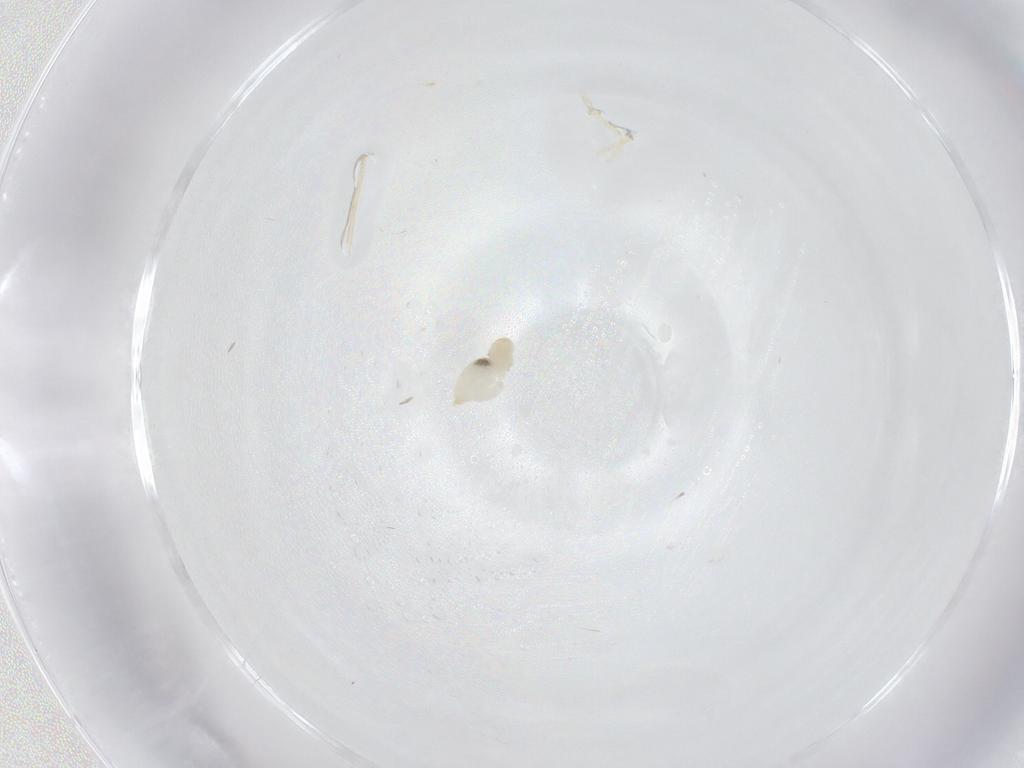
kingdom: Animalia
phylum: Arthropoda
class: Insecta
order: Diptera
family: Cecidomyiidae
